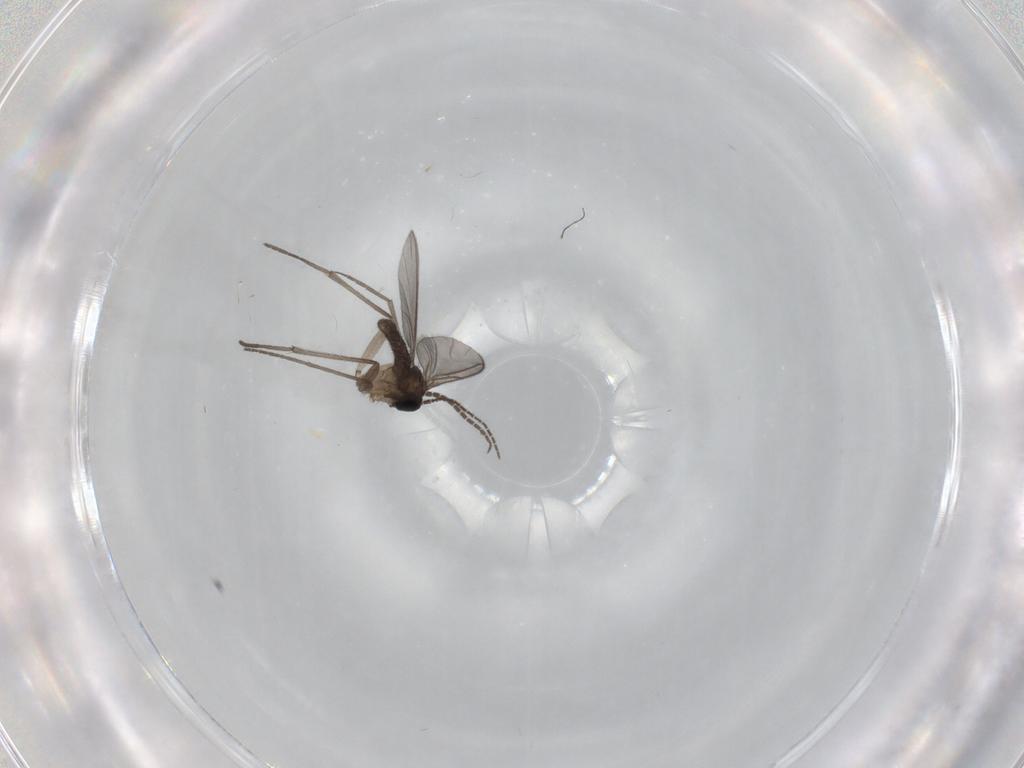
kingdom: Animalia
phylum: Arthropoda
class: Insecta
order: Diptera
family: Sciaridae
